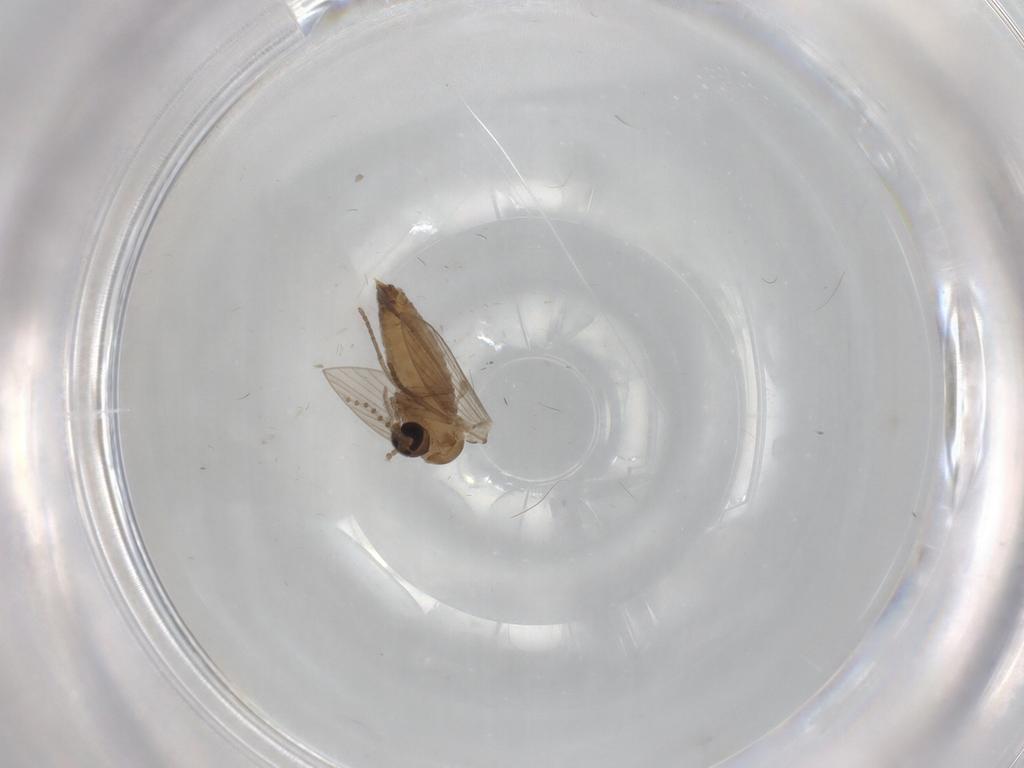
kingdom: Animalia
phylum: Arthropoda
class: Insecta
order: Diptera
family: Psychodidae
